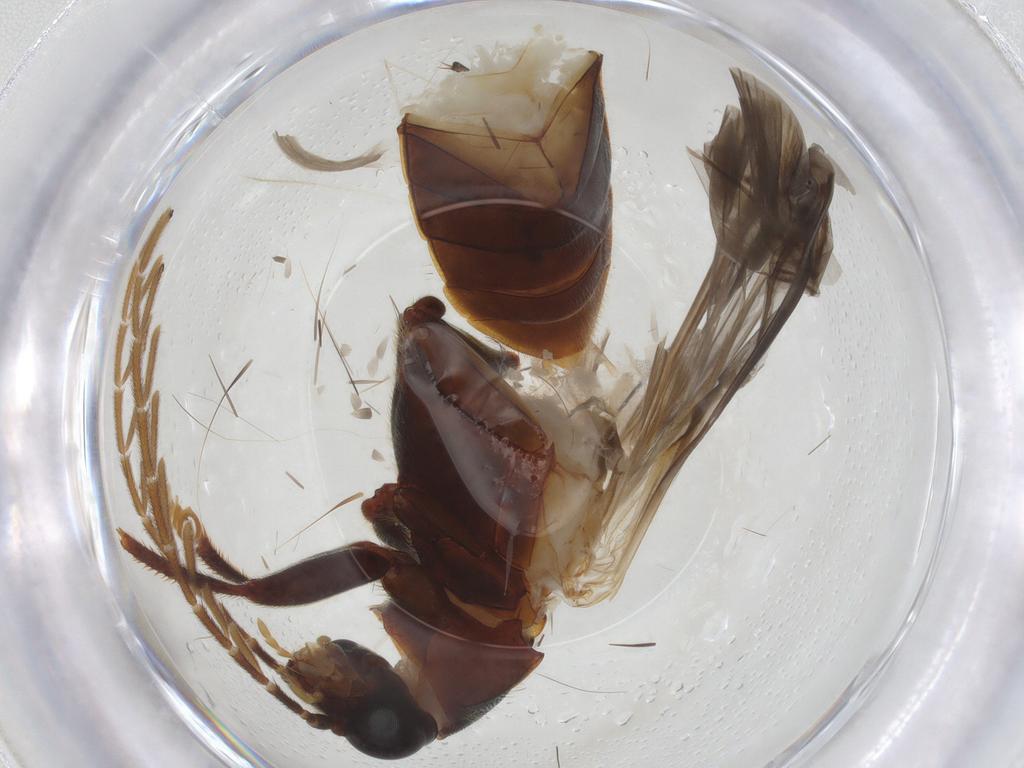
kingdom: Animalia
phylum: Arthropoda
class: Insecta
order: Coleoptera
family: Ptilodactylidae
